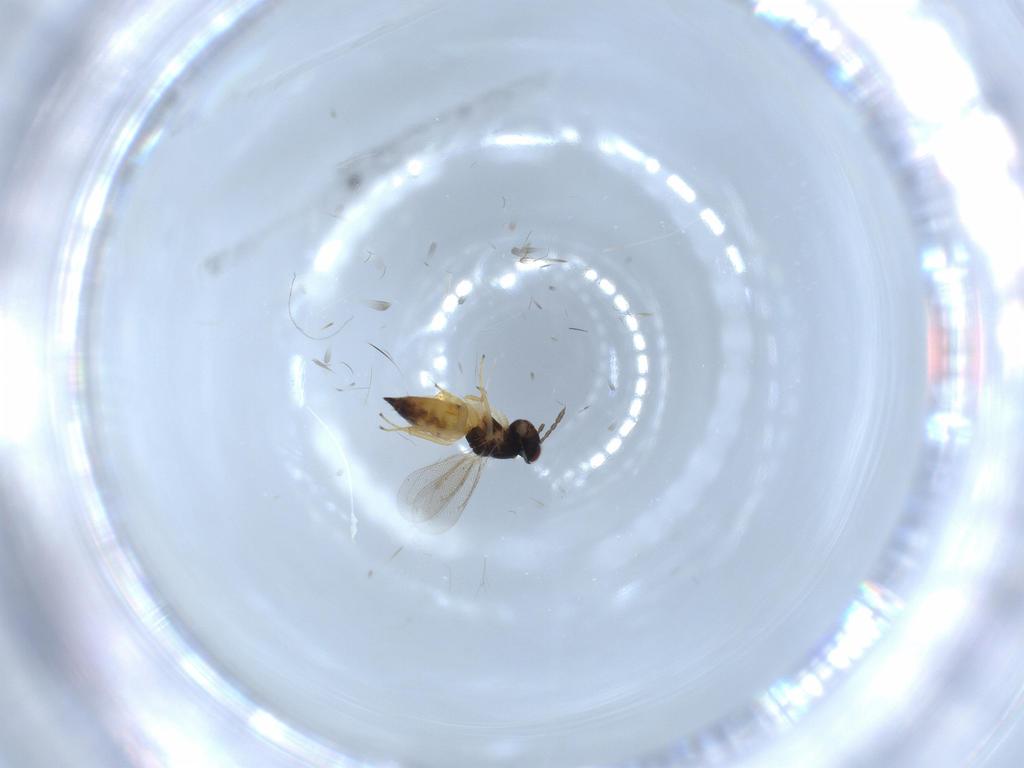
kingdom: Animalia
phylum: Arthropoda
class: Insecta
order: Hymenoptera
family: Eulophidae
